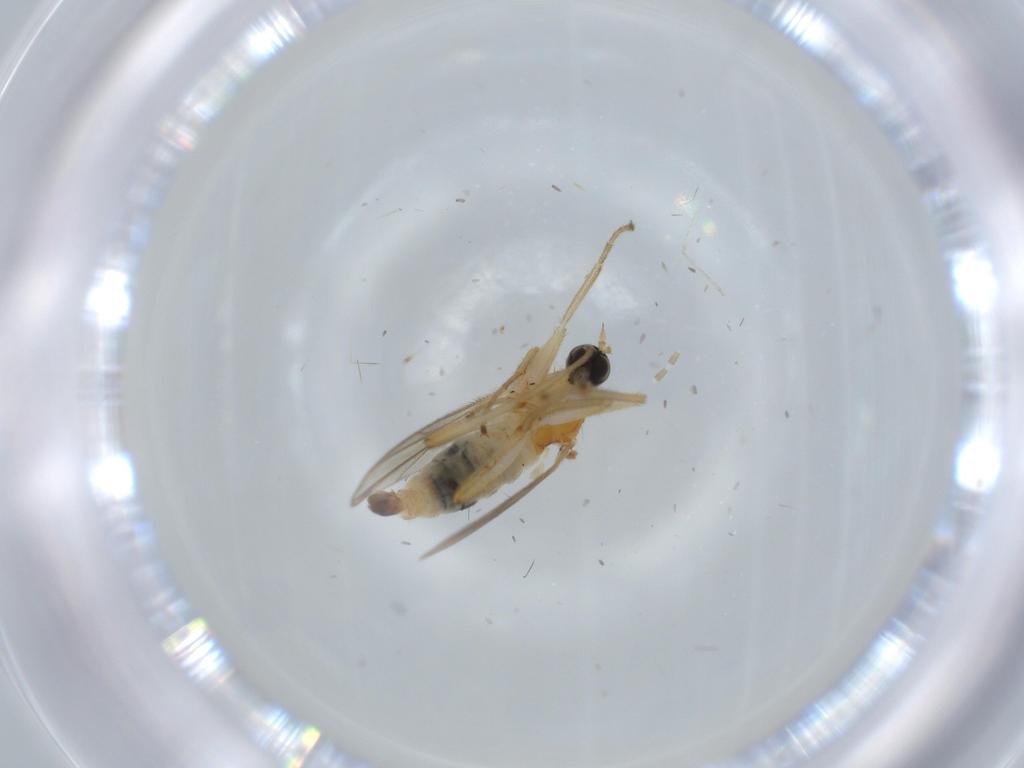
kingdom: Animalia
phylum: Arthropoda
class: Insecta
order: Diptera
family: Hybotidae
